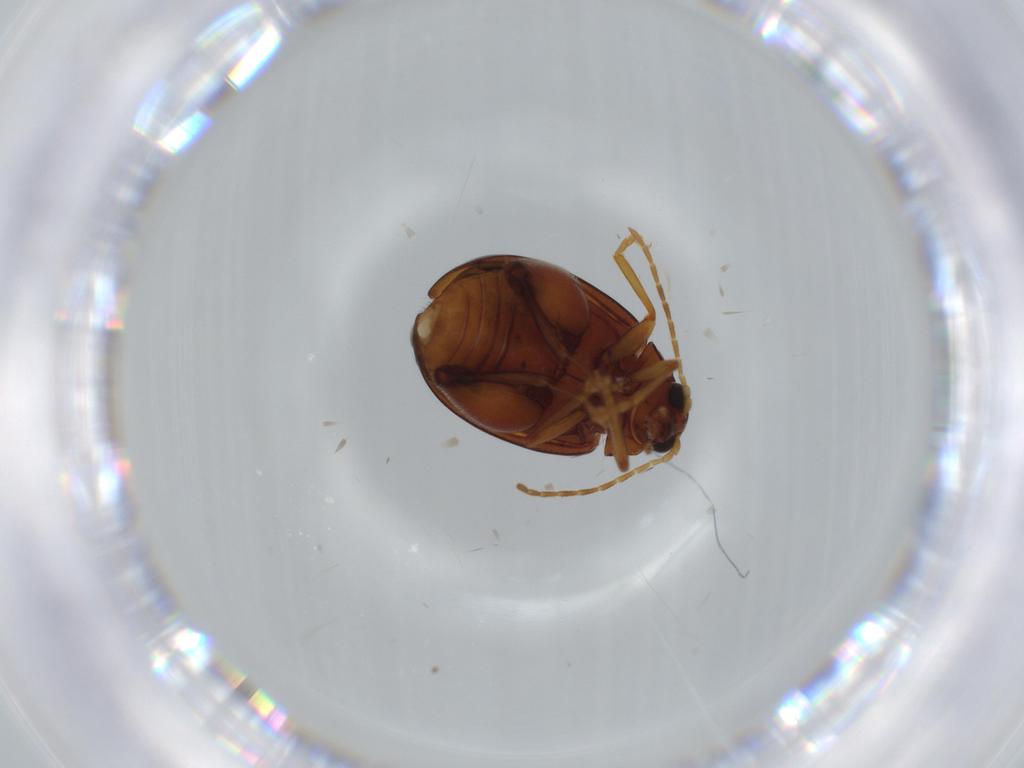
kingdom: Animalia
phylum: Arthropoda
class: Insecta
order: Coleoptera
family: Chrysomelidae
